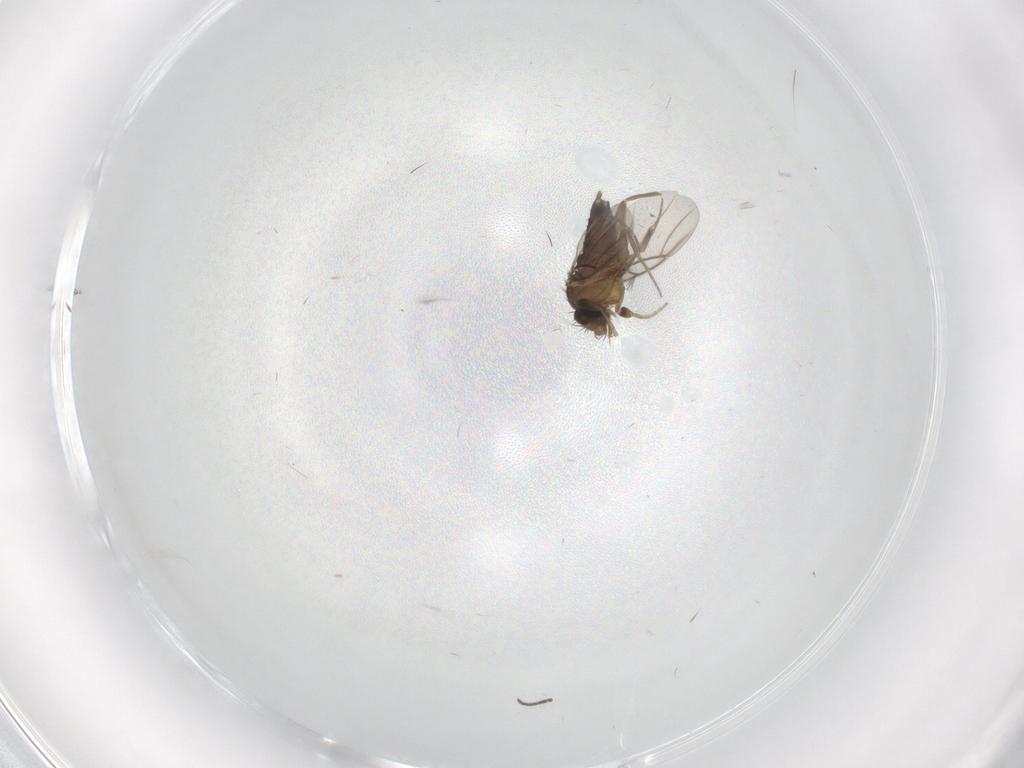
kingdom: Animalia
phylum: Arthropoda
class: Insecta
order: Diptera
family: Phoridae
